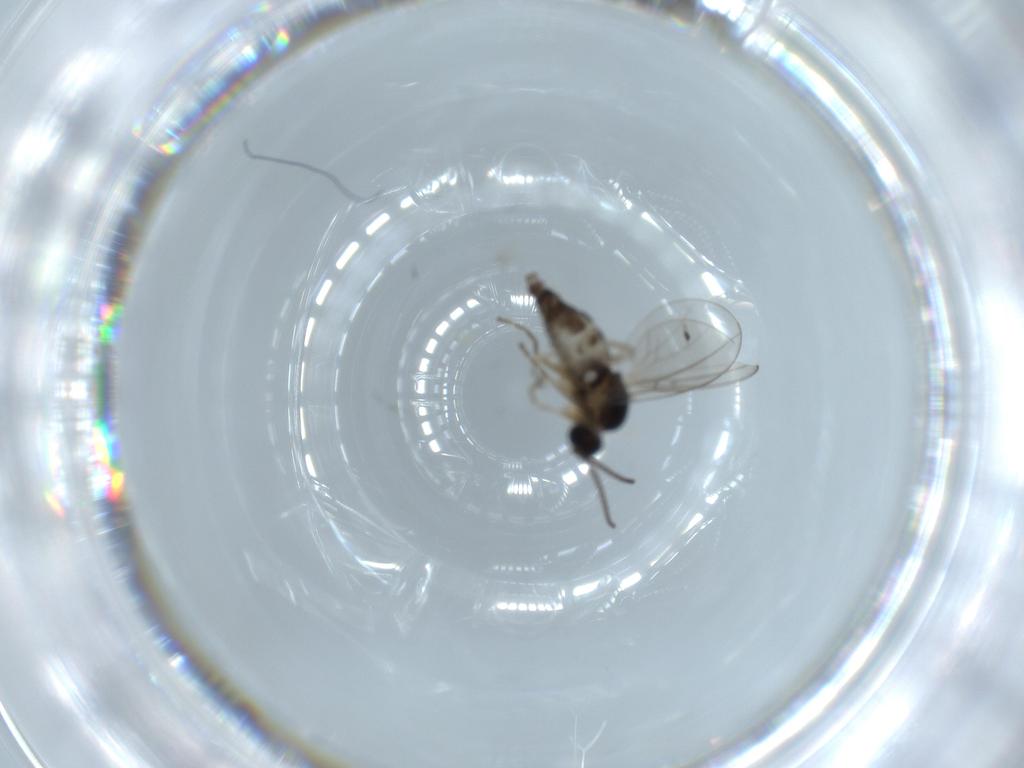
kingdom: Animalia
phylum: Arthropoda
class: Insecta
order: Diptera
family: Cecidomyiidae
